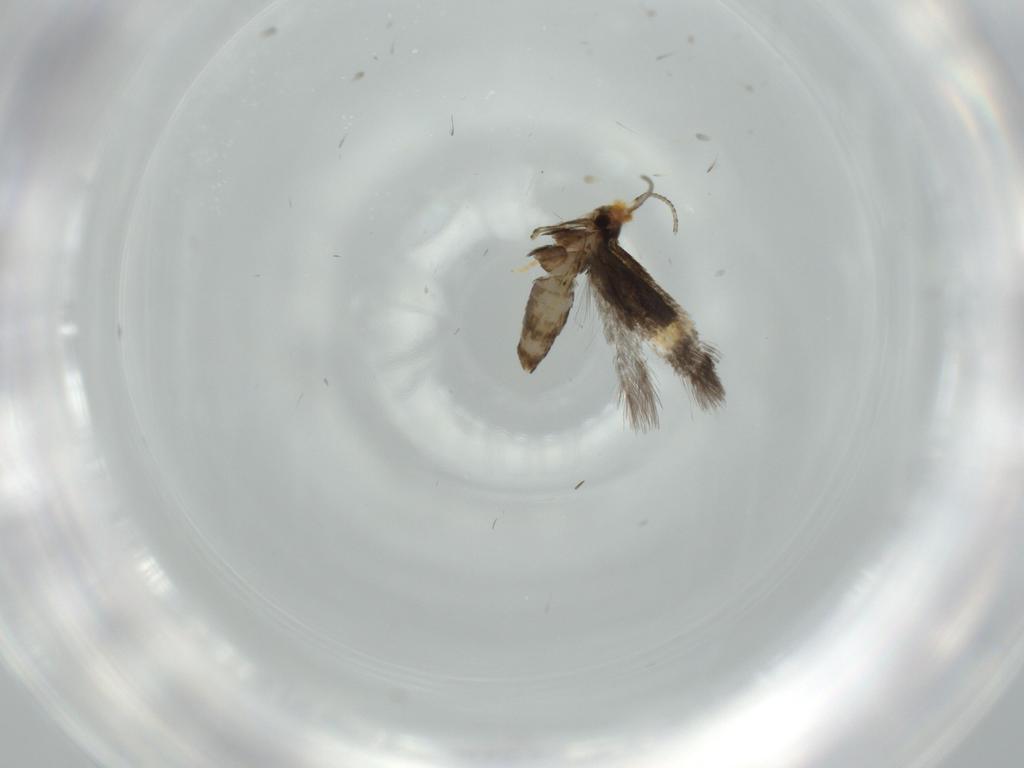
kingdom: Animalia
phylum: Arthropoda
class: Insecta
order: Lepidoptera
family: Nepticulidae
